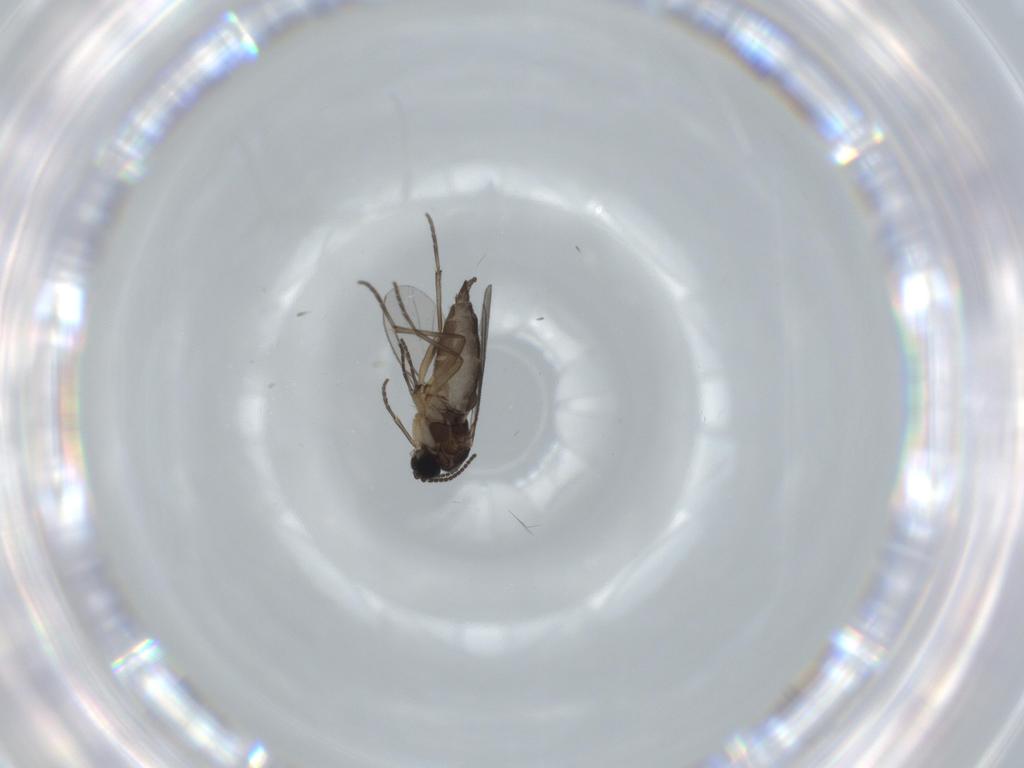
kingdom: Animalia
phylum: Arthropoda
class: Insecta
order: Diptera
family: Sciaridae
